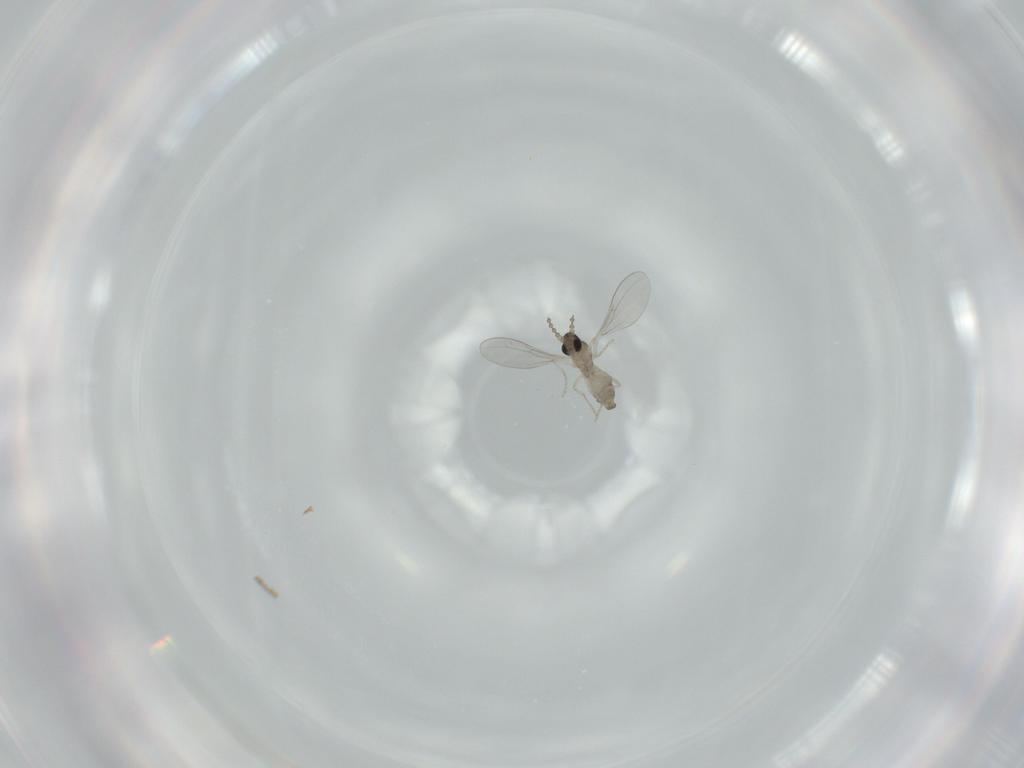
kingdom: Animalia
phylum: Arthropoda
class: Insecta
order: Diptera
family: Cecidomyiidae
